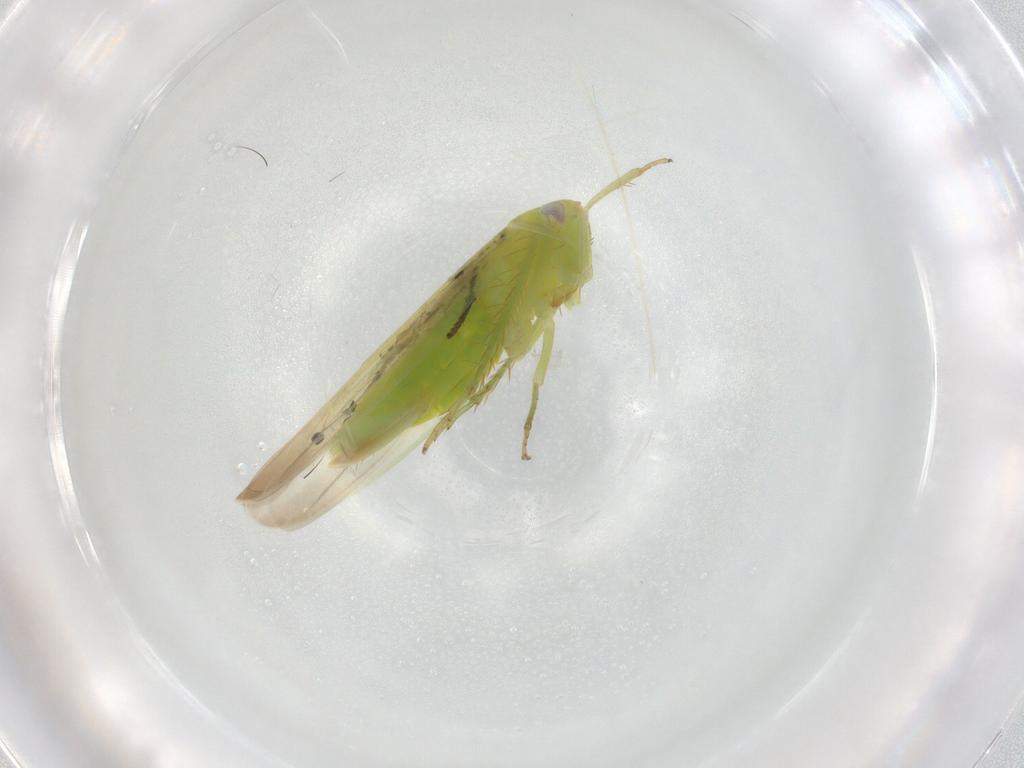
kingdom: Animalia
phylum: Arthropoda
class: Insecta
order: Hemiptera
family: Cicadellidae
